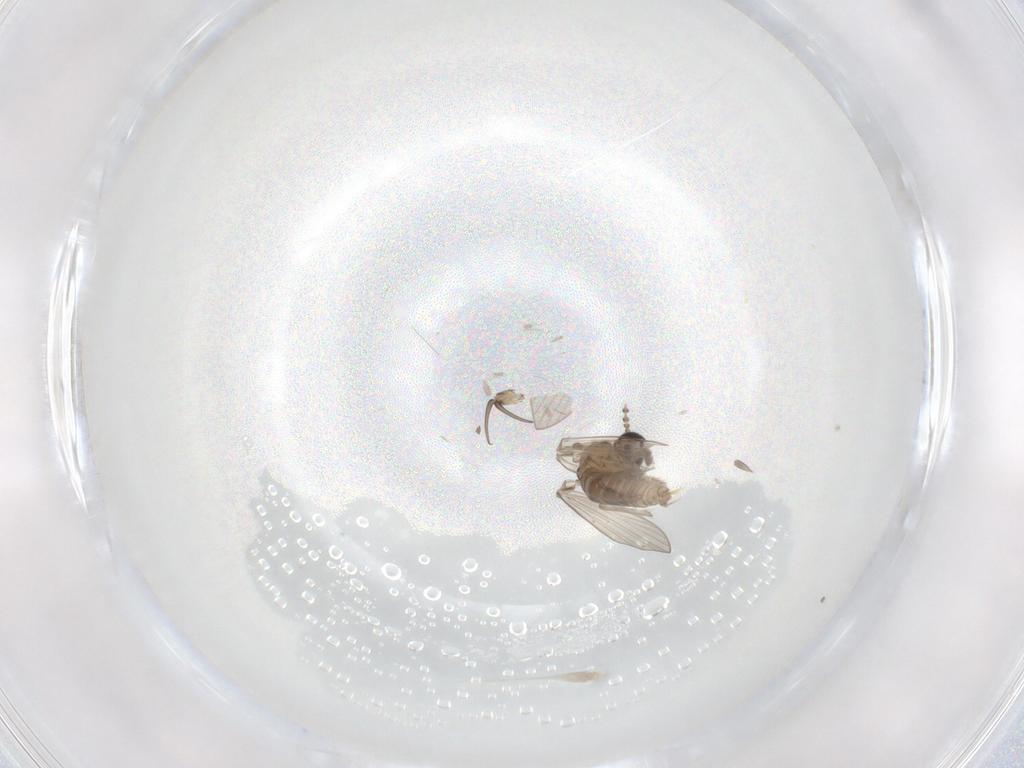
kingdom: Animalia
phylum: Arthropoda
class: Insecta
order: Diptera
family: Psychodidae
